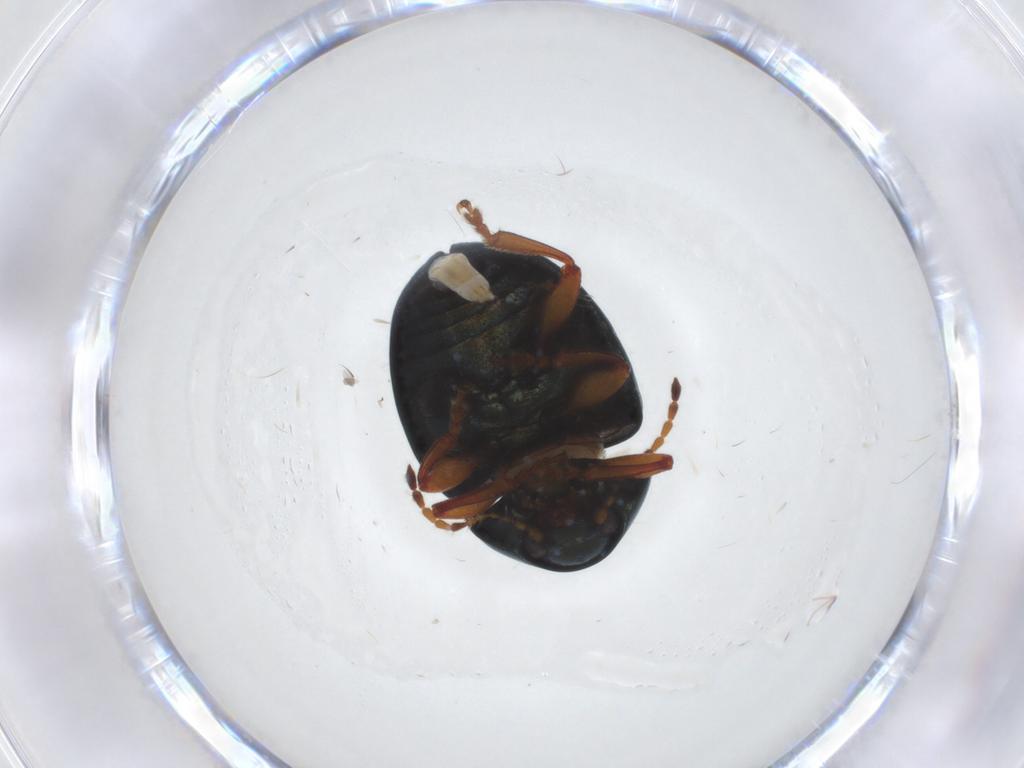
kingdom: Animalia
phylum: Arthropoda
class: Insecta
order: Coleoptera
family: Chrysomelidae
